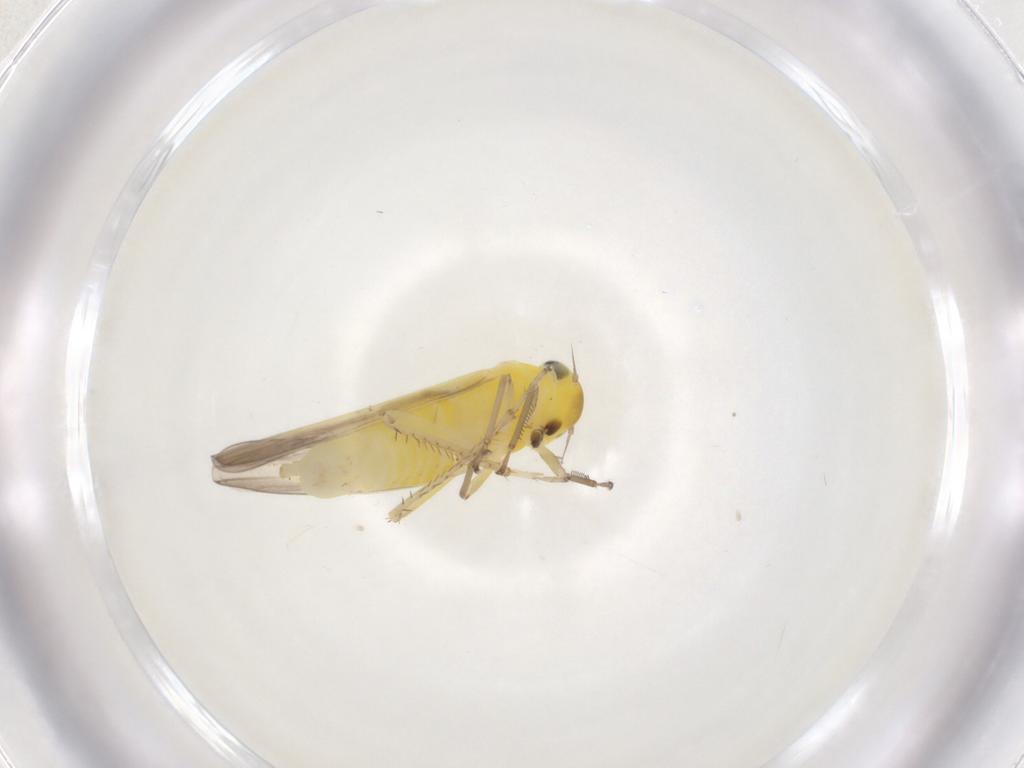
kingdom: Animalia
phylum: Arthropoda
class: Insecta
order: Hemiptera
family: Cicadellidae
